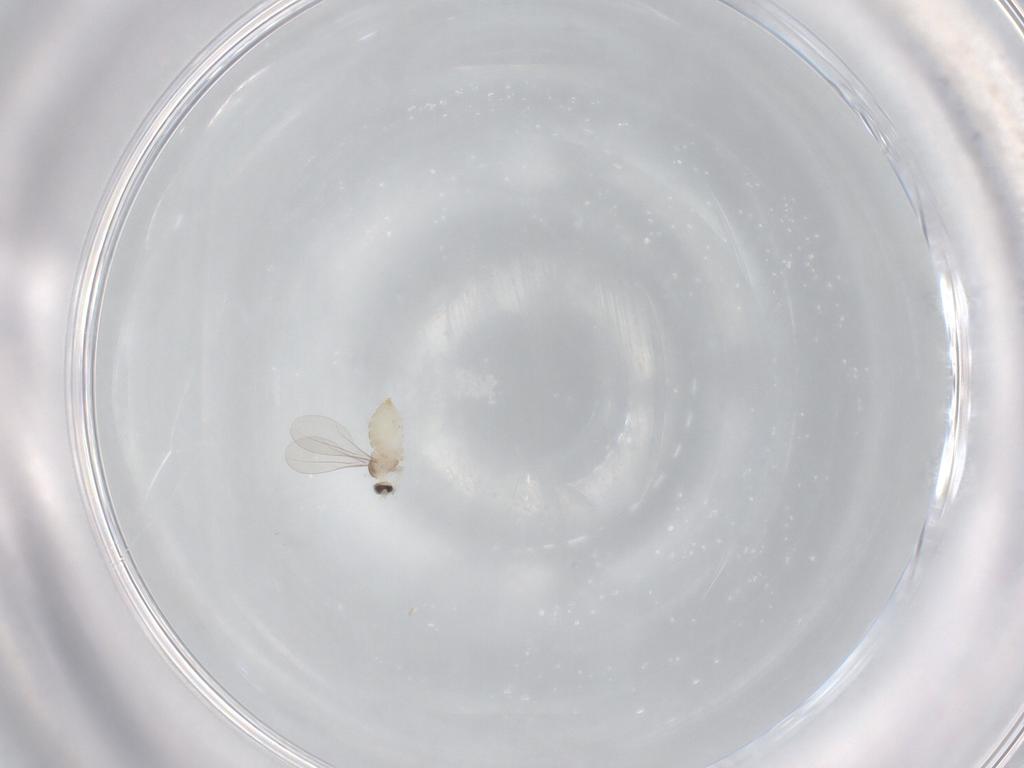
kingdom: Animalia
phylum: Arthropoda
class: Insecta
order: Diptera
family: Cecidomyiidae
